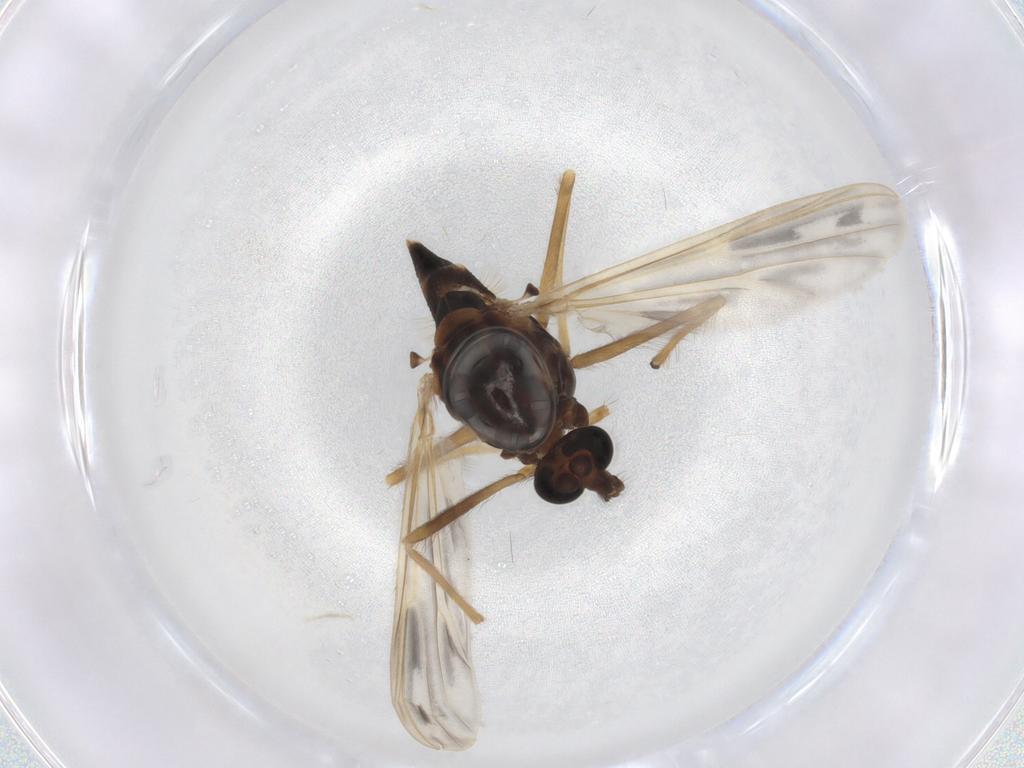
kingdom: Animalia
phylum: Arthropoda
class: Insecta
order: Diptera
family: Chironomidae
